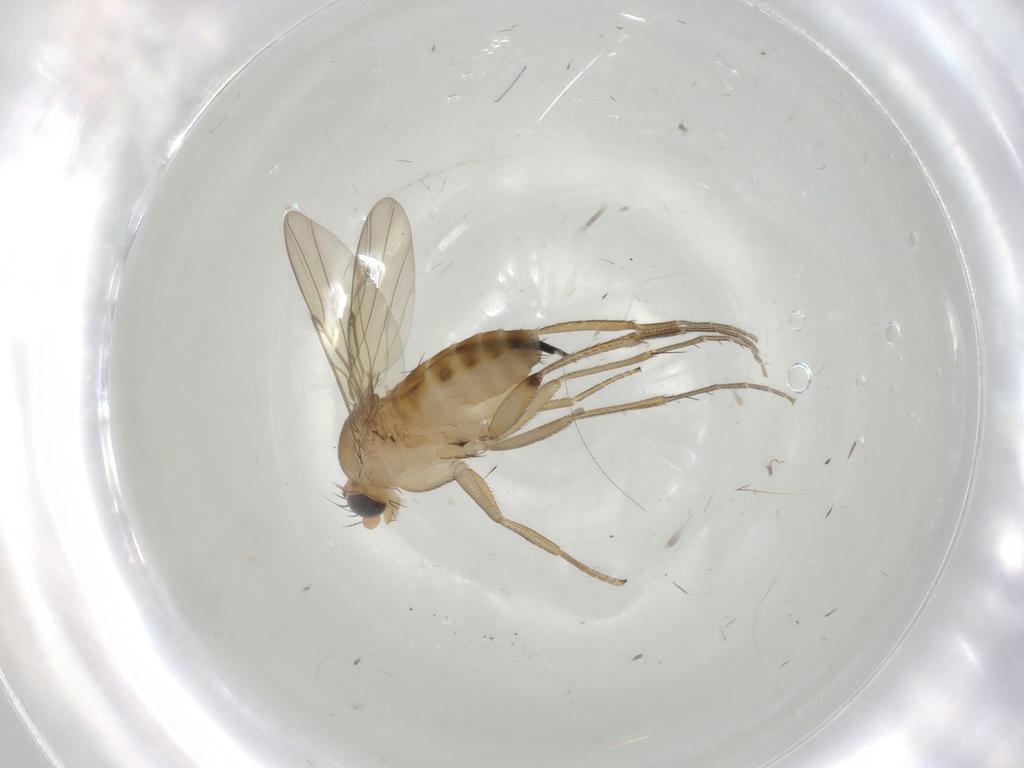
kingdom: Animalia
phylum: Arthropoda
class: Insecta
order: Diptera
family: Phoridae
